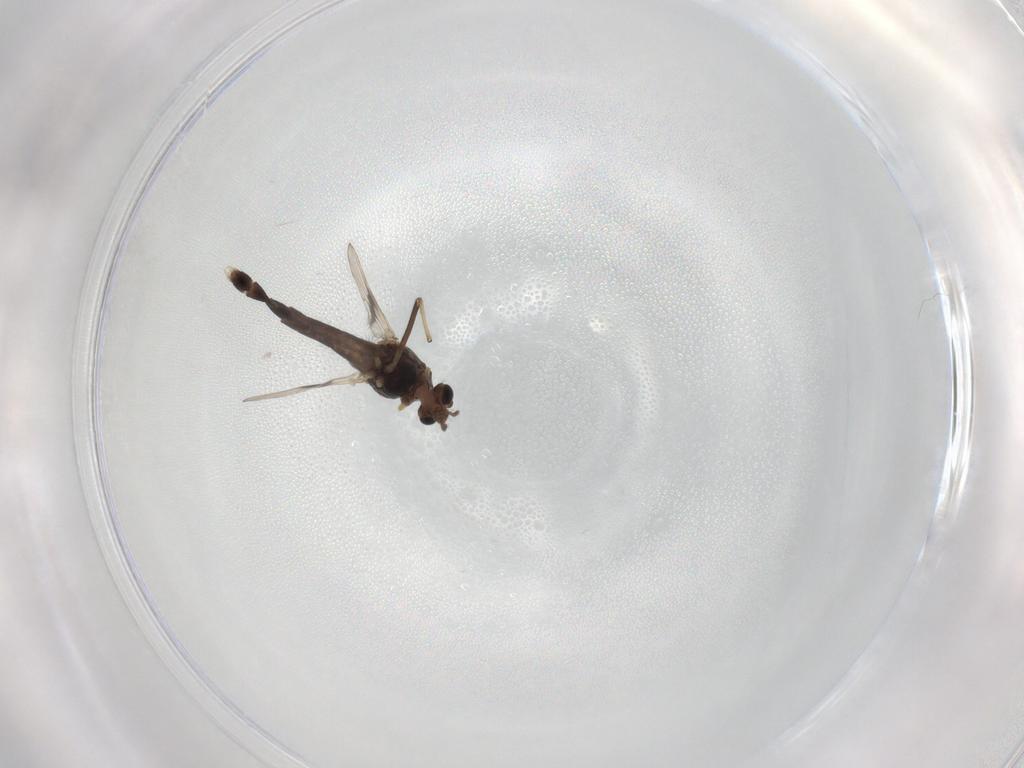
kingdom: Animalia
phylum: Arthropoda
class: Insecta
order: Diptera
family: Chironomidae
